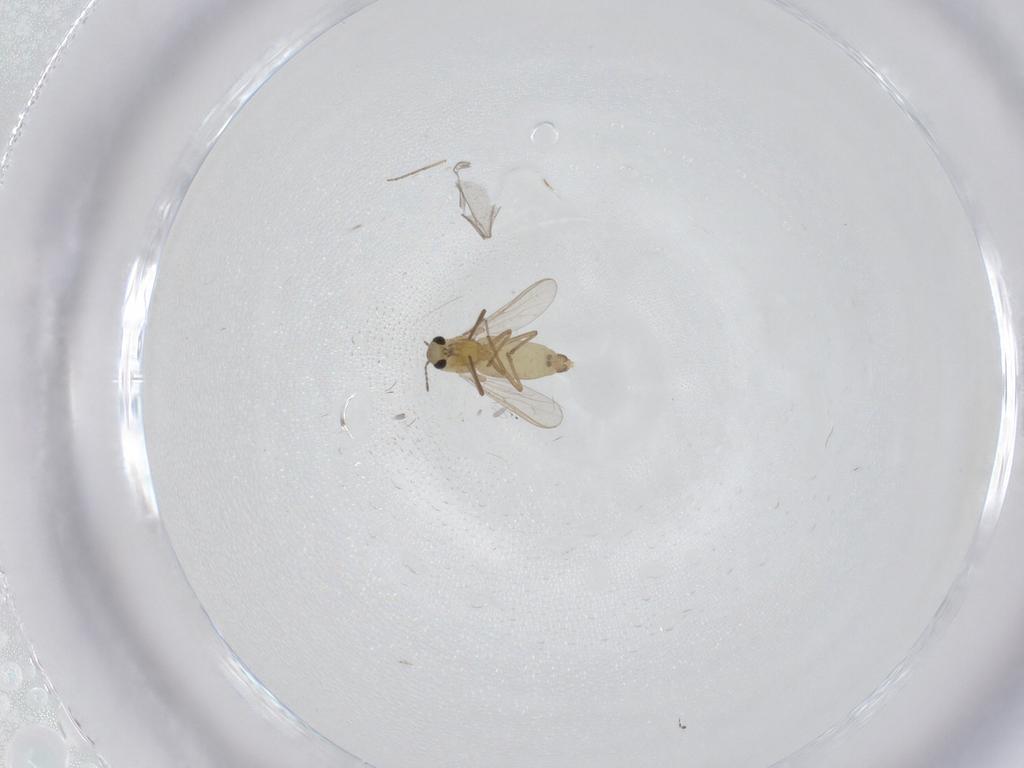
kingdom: Animalia
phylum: Arthropoda
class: Insecta
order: Diptera
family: Chironomidae
